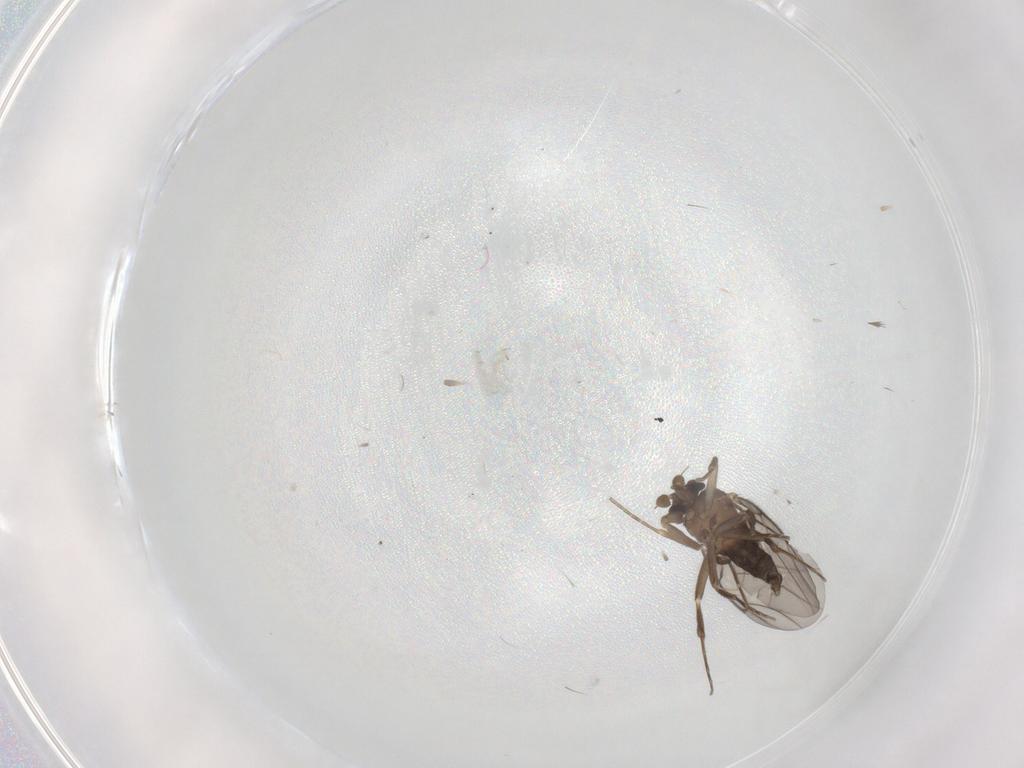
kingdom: Animalia
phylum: Arthropoda
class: Insecta
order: Diptera
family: Phoridae
